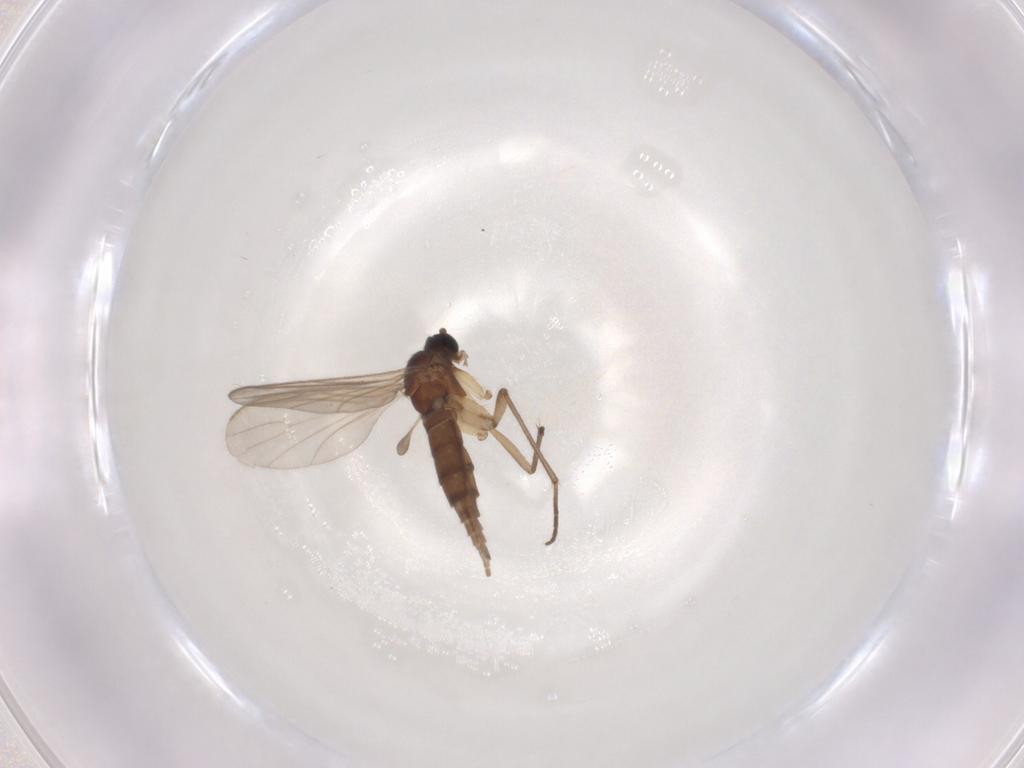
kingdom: Animalia
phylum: Arthropoda
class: Insecta
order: Diptera
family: Sciaridae
